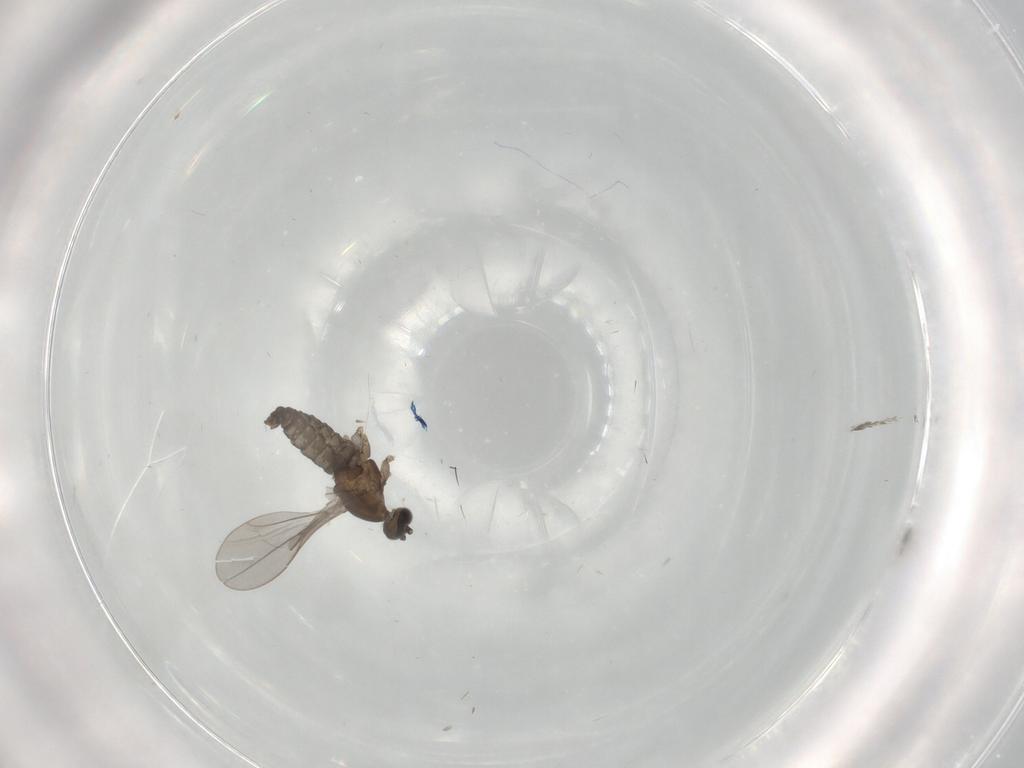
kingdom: Animalia
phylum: Arthropoda
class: Insecta
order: Diptera
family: Cecidomyiidae
